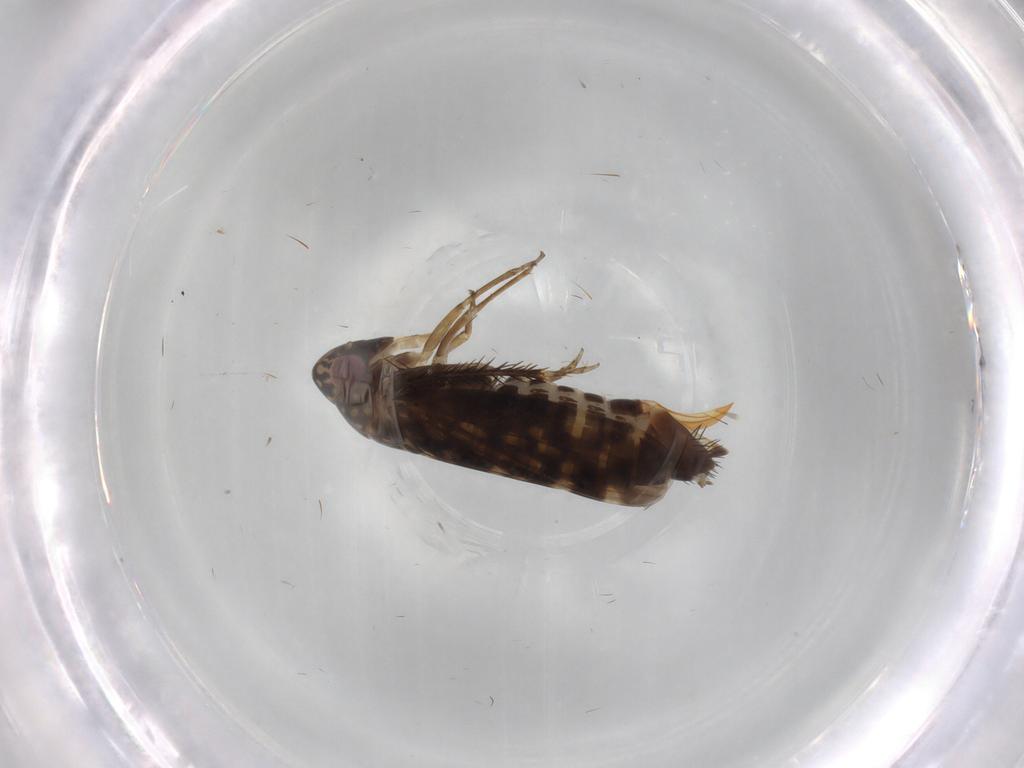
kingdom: Animalia
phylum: Arthropoda
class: Insecta
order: Hemiptera
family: Cicadellidae
